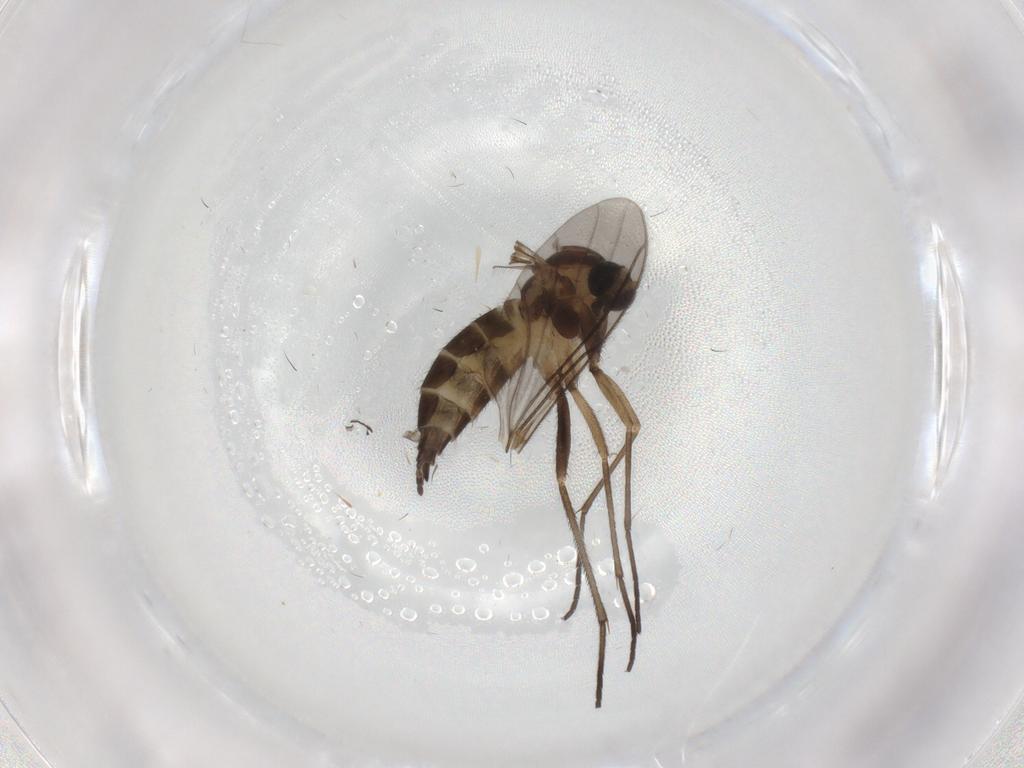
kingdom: Animalia
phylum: Arthropoda
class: Insecta
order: Diptera
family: Sciaridae
